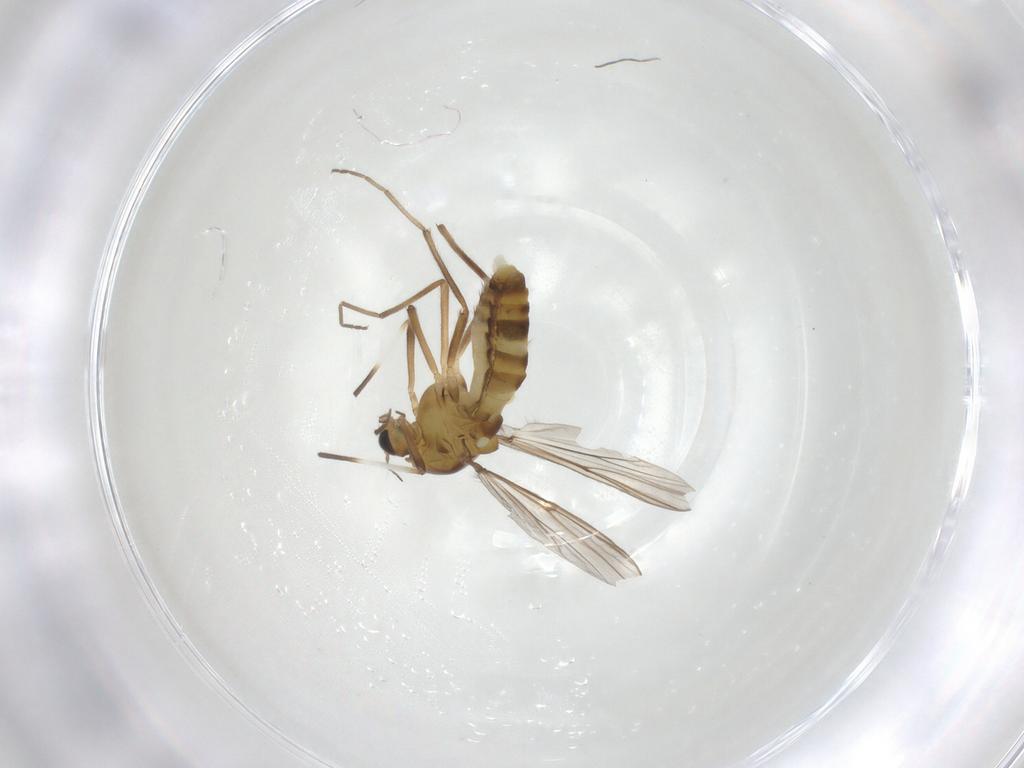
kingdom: Animalia
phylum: Arthropoda
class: Insecta
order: Diptera
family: Chironomidae
